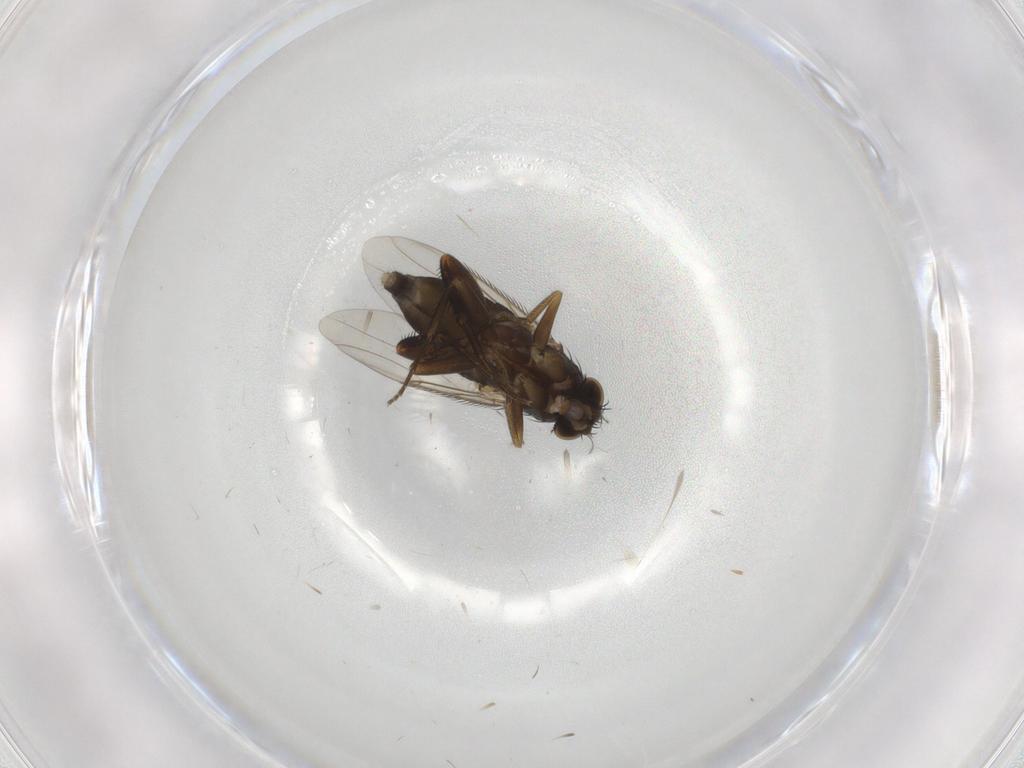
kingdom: Animalia
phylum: Arthropoda
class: Insecta
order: Diptera
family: Phoridae
